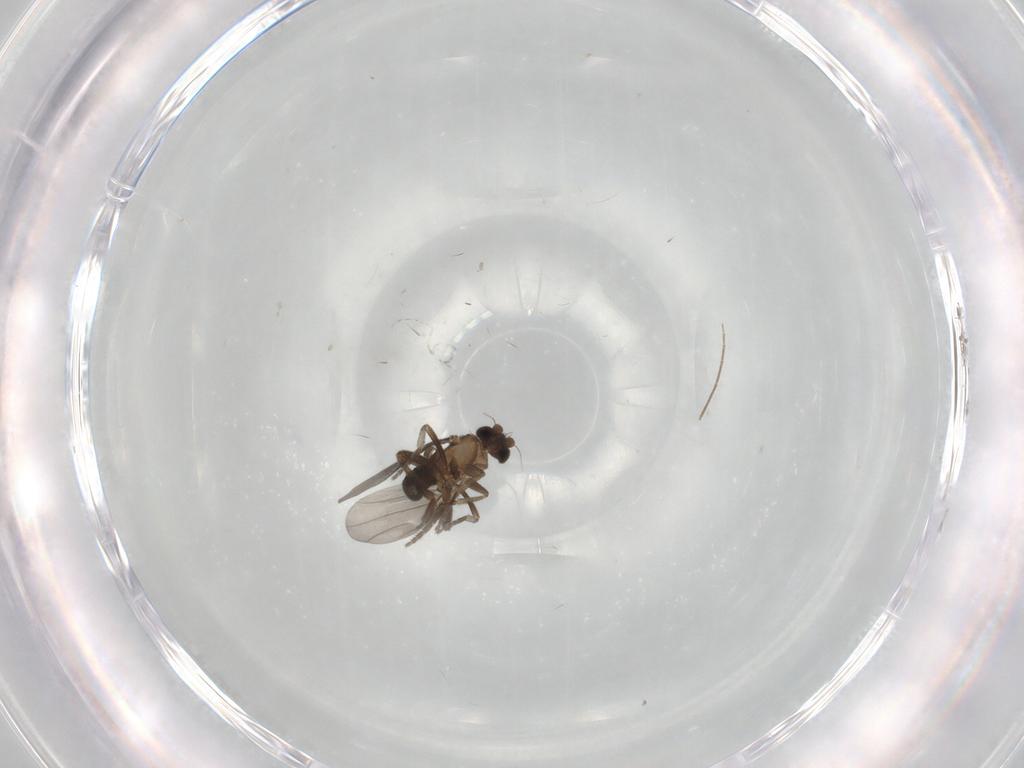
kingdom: Animalia
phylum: Arthropoda
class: Insecta
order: Diptera
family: Phoridae
